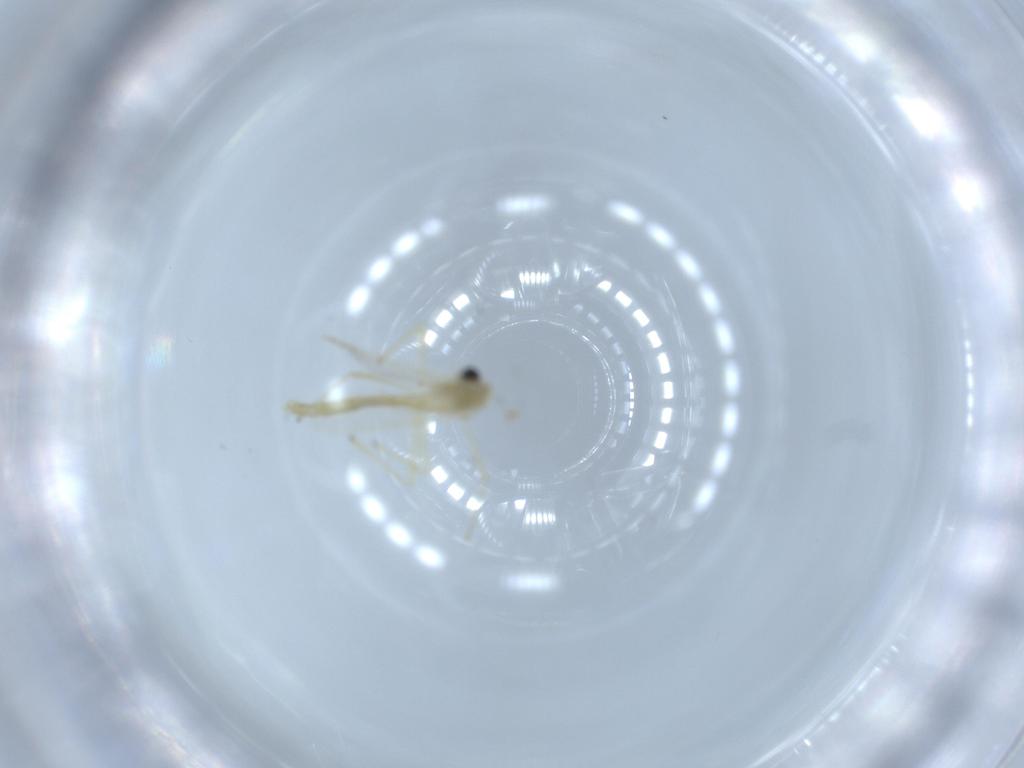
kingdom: Animalia
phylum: Arthropoda
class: Insecta
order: Diptera
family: Chironomidae
